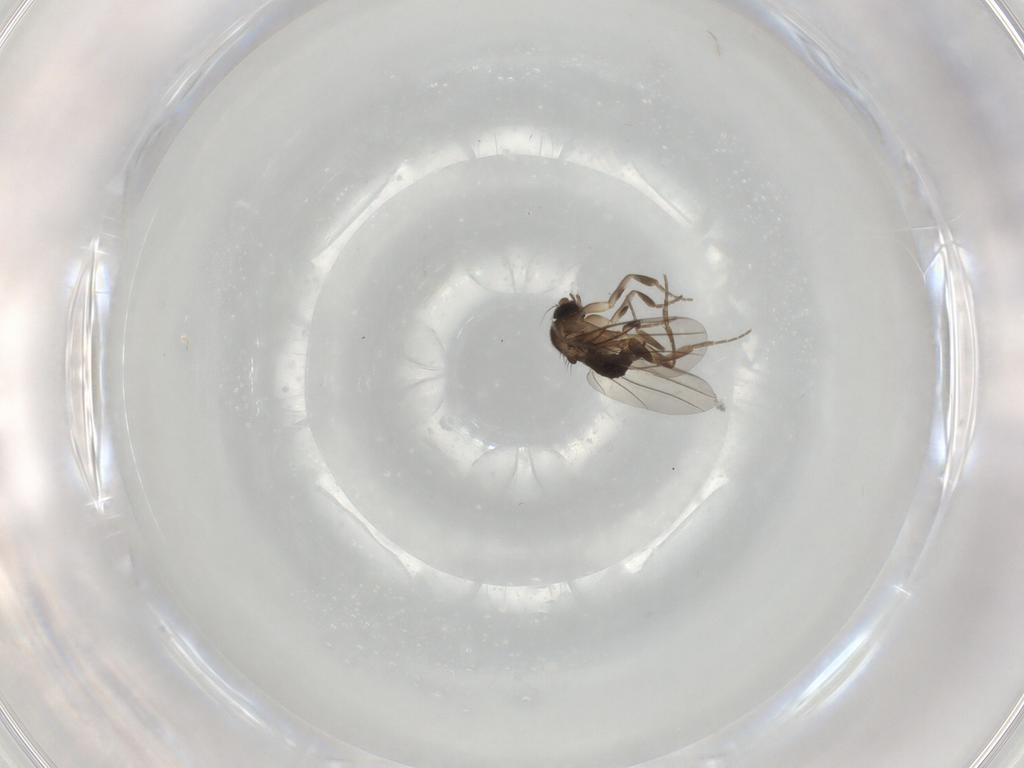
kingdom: Animalia
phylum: Arthropoda
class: Insecta
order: Diptera
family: Phoridae
